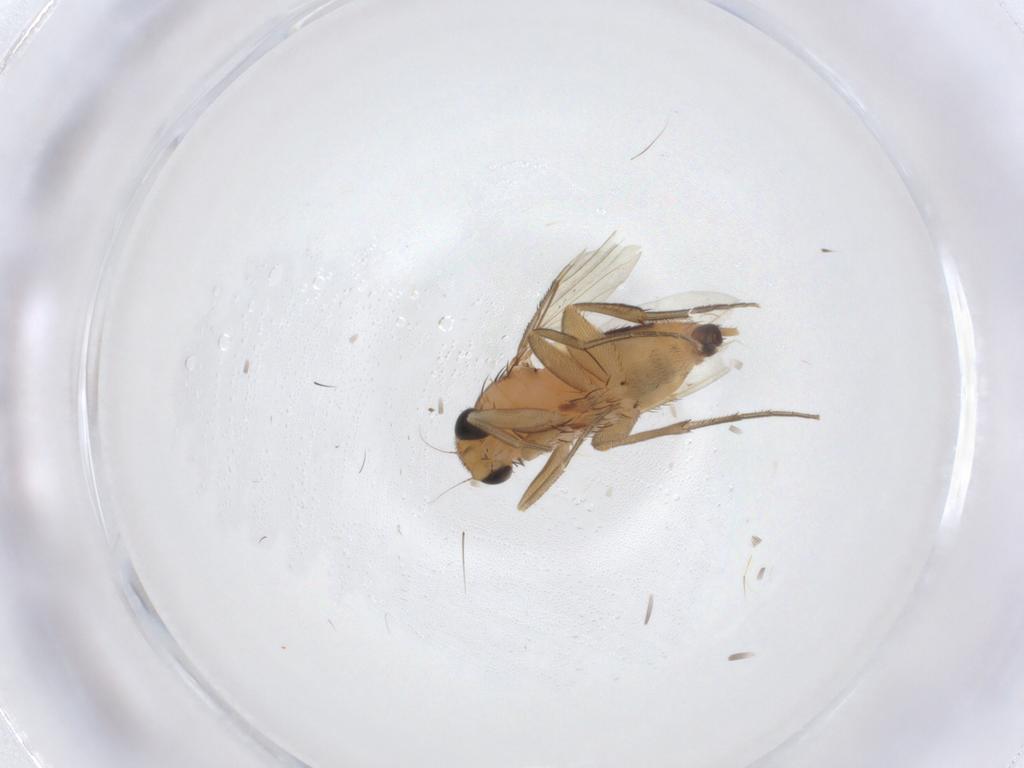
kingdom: Animalia
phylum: Arthropoda
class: Insecta
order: Diptera
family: Phoridae
